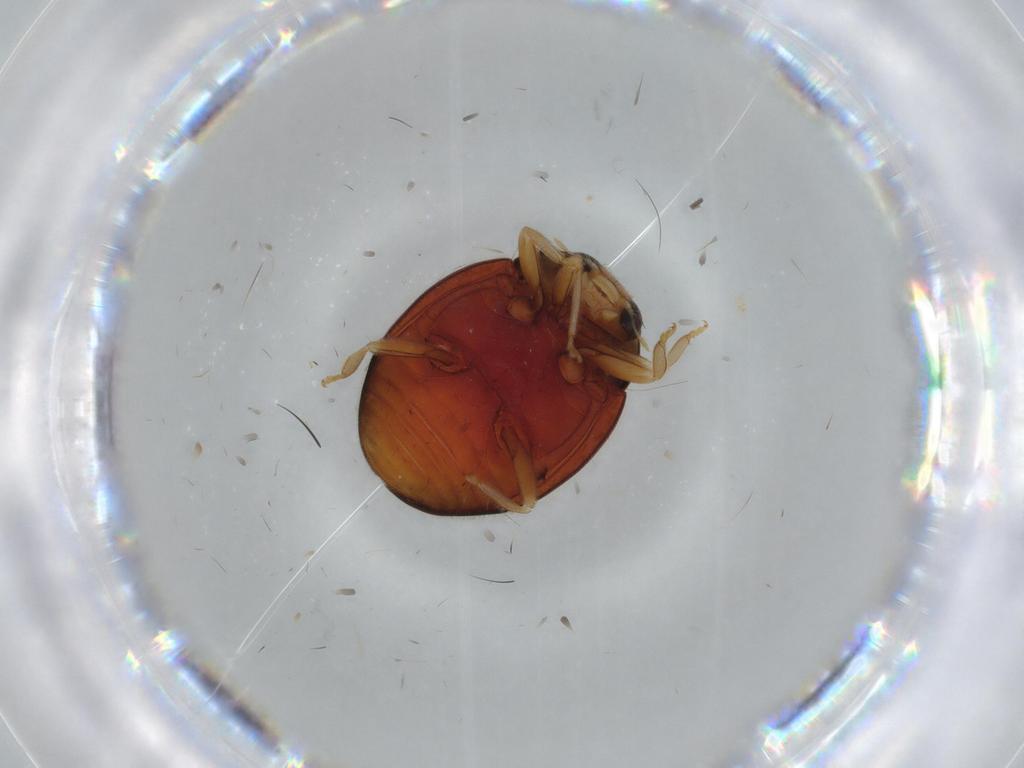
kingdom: Animalia
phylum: Arthropoda
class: Insecta
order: Coleoptera
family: Coccinellidae
